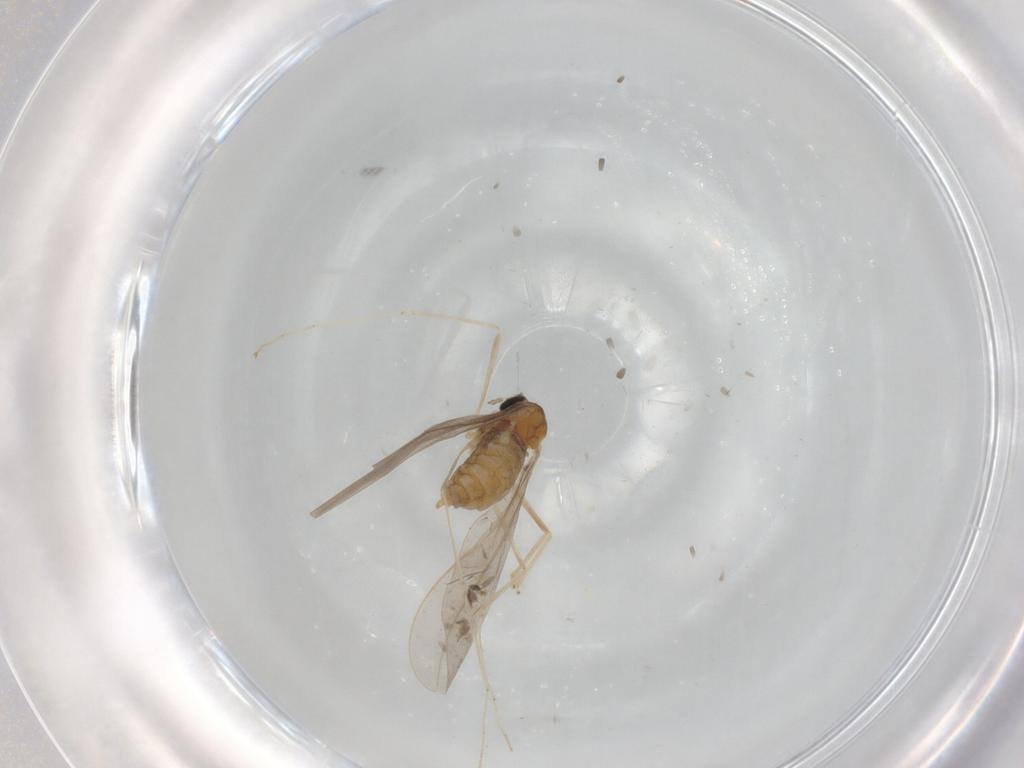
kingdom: Animalia
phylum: Arthropoda
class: Insecta
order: Diptera
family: Cecidomyiidae
